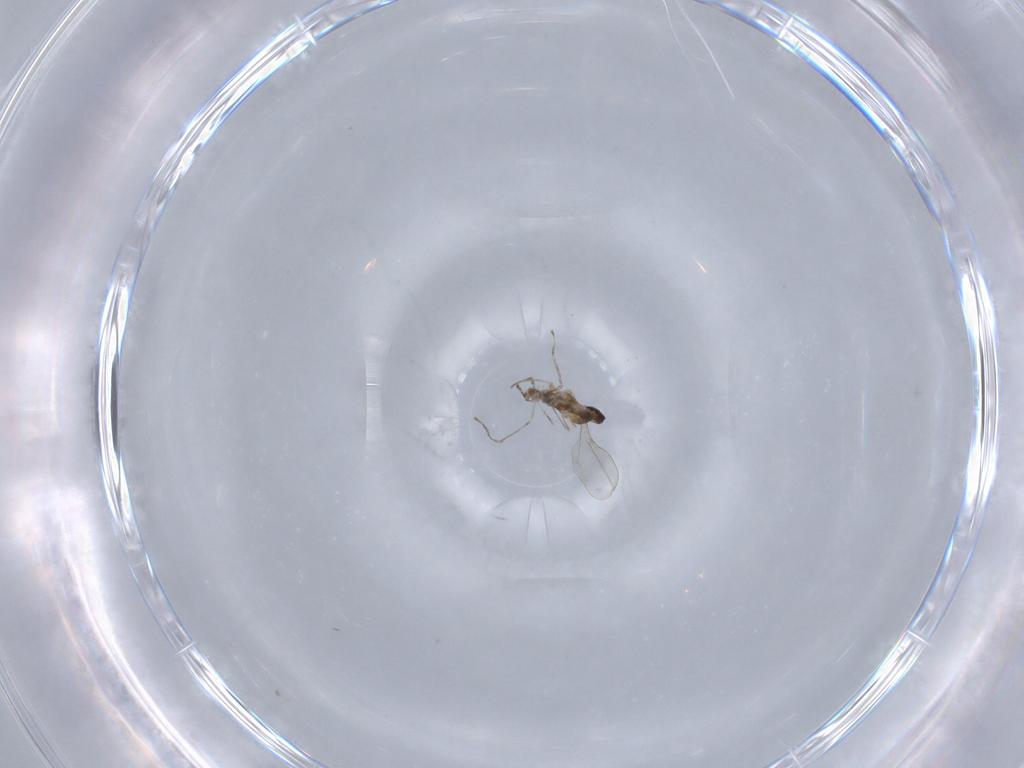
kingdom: Animalia
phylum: Arthropoda
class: Insecta
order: Diptera
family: Cecidomyiidae
